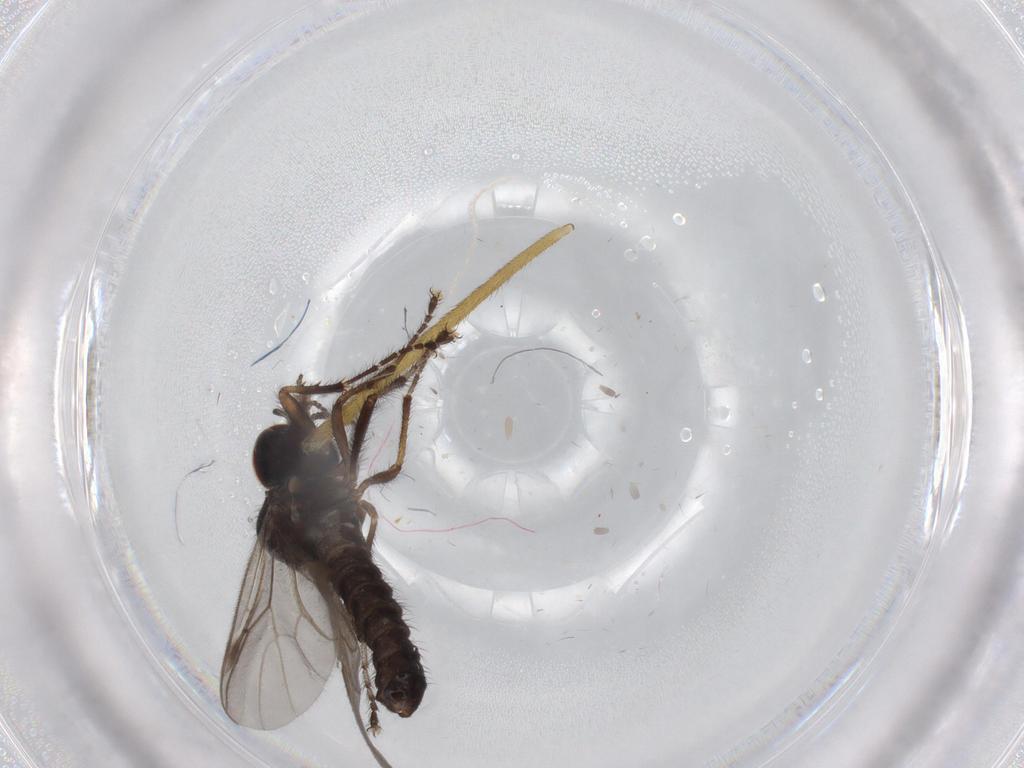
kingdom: Animalia
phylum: Arthropoda
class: Insecta
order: Diptera
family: Bibionidae
